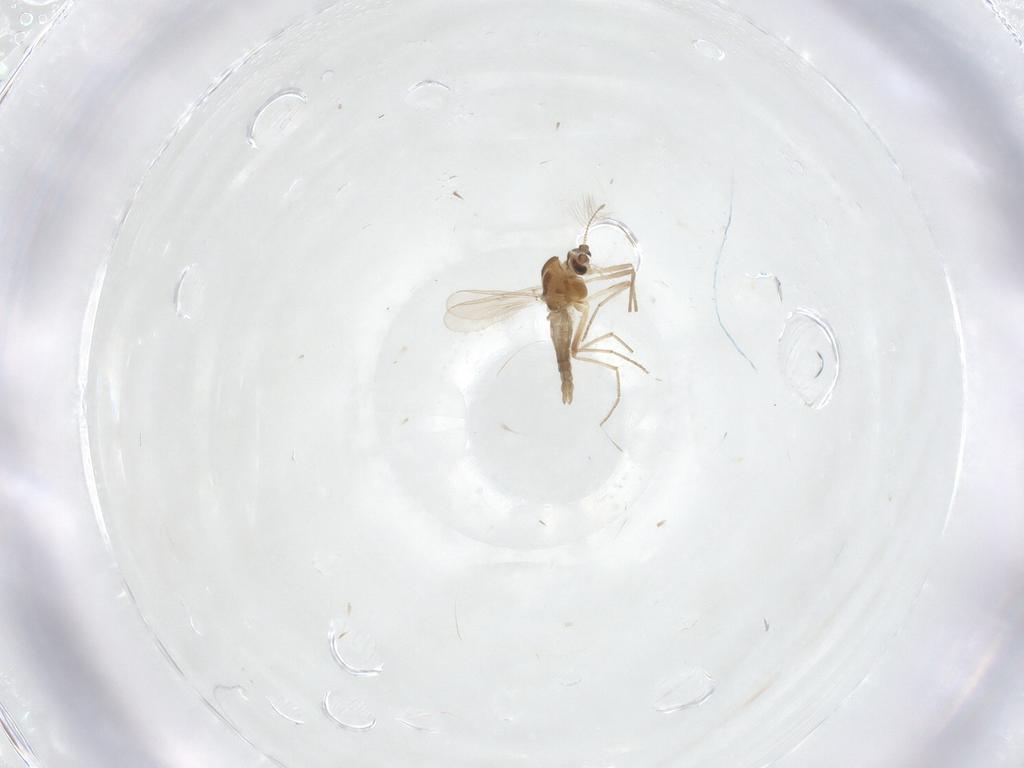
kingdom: Animalia
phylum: Arthropoda
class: Insecta
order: Diptera
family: Chironomidae
